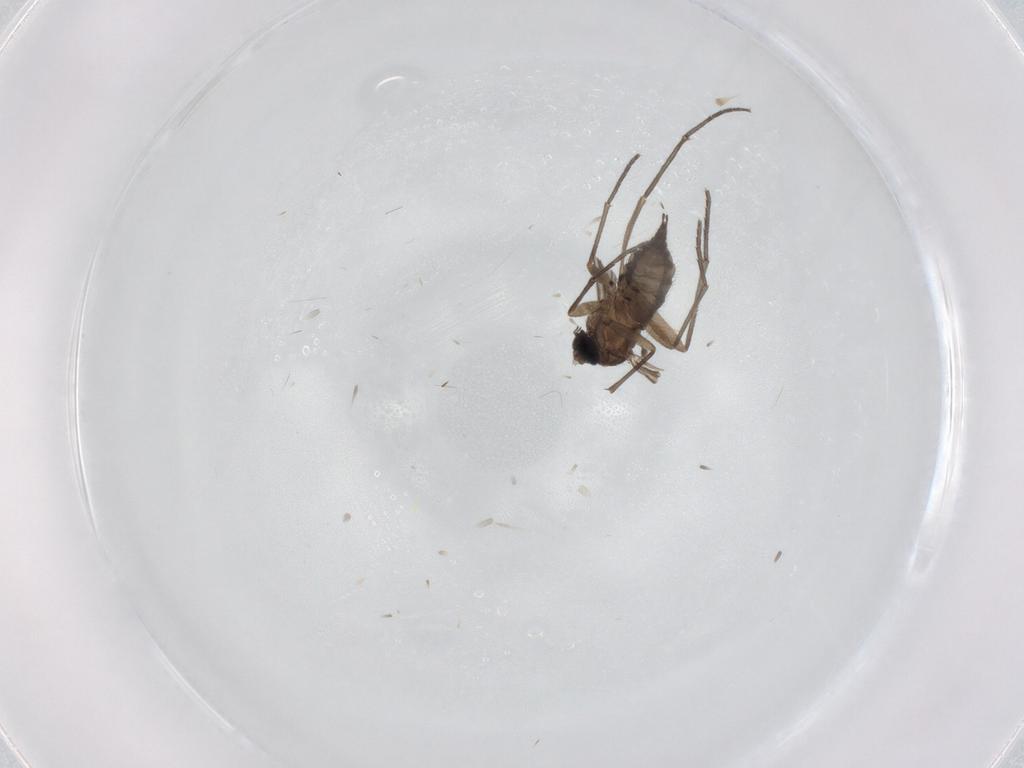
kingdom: Animalia
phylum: Arthropoda
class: Insecta
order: Diptera
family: Sciaridae
